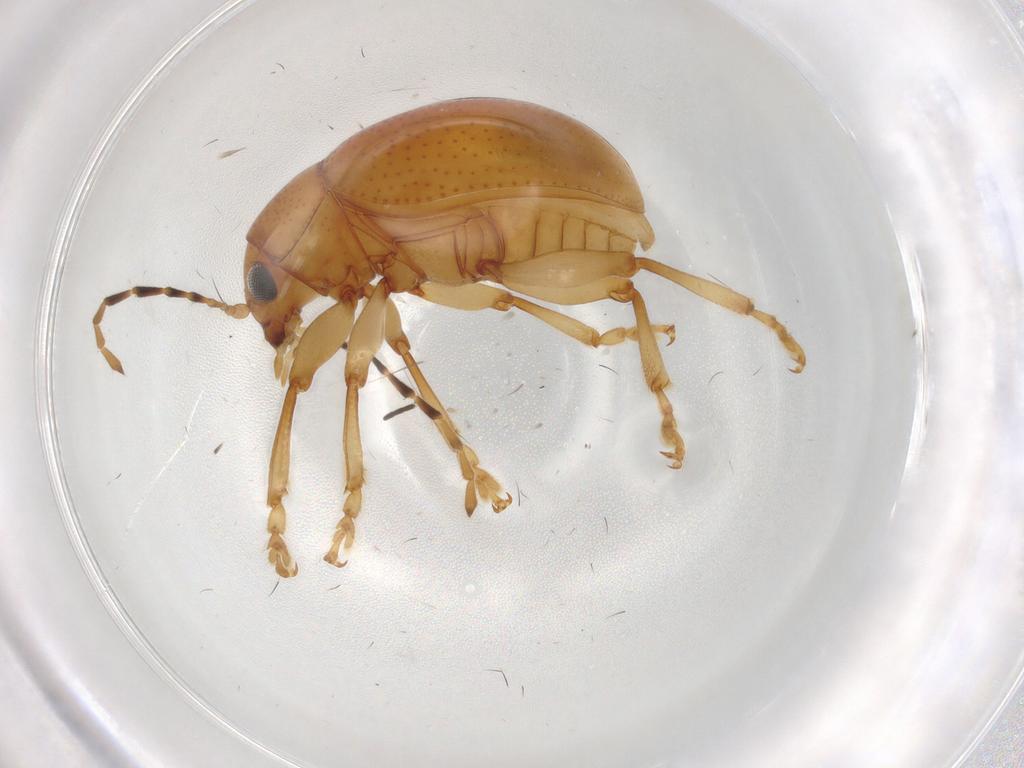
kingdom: Animalia
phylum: Arthropoda
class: Insecta
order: Coleoptera
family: Chrysomelidae
